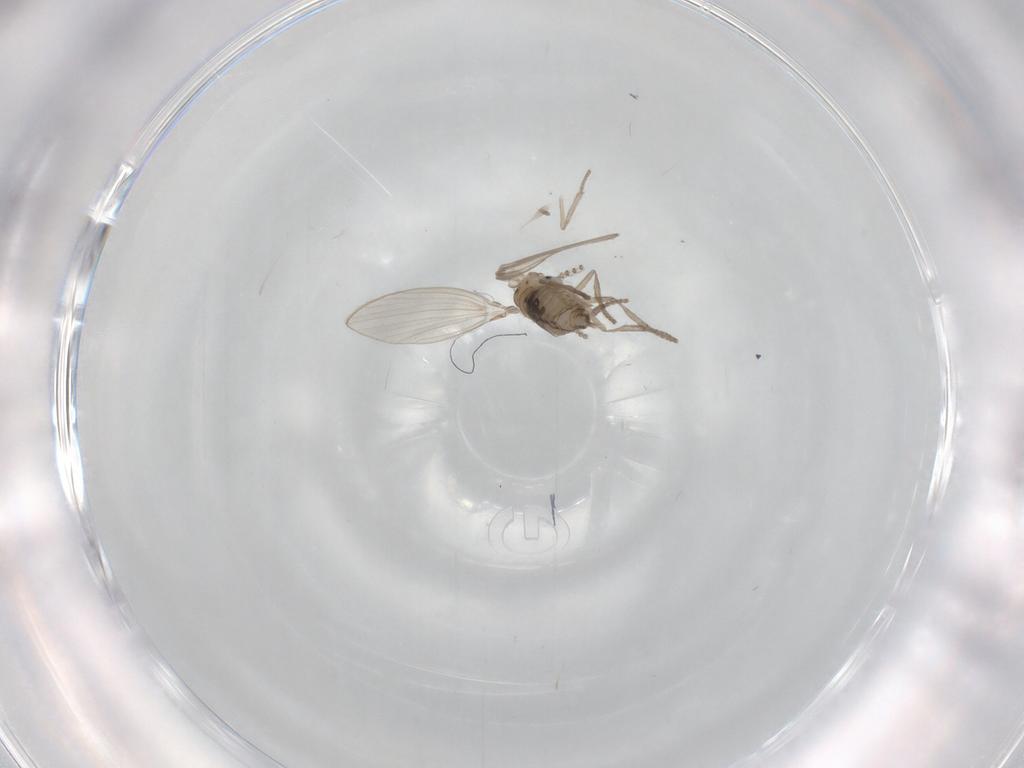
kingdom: Animalia
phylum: Arthropoda
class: Insecta
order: Diptera
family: Psychodidae
